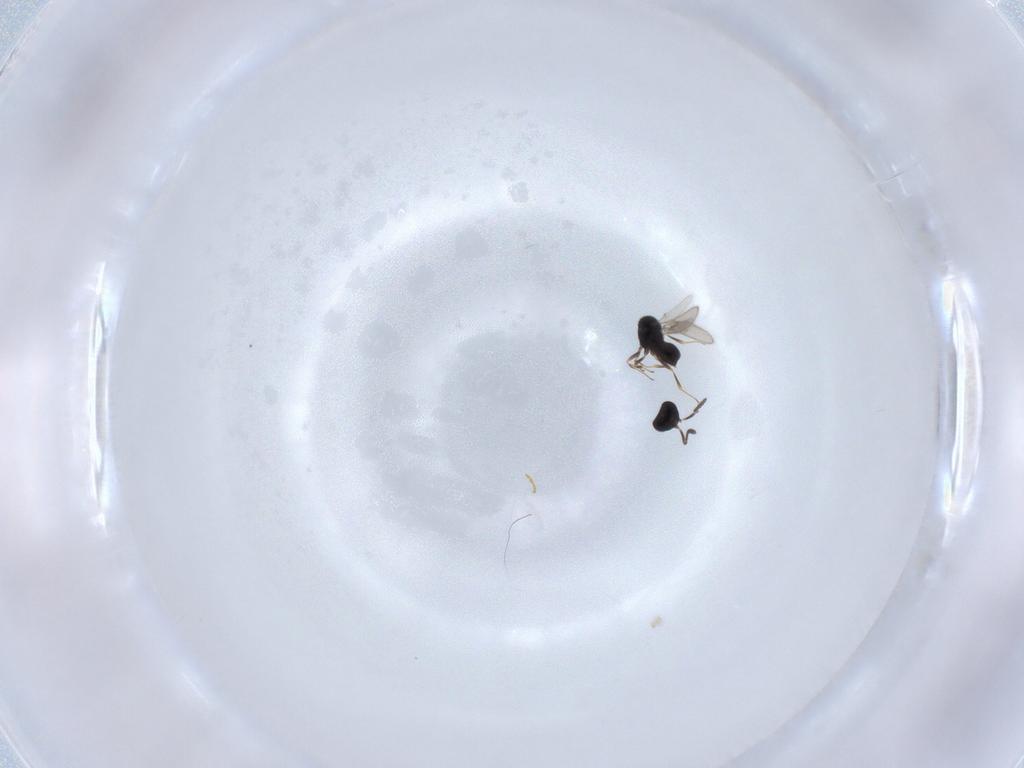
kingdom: Animalia
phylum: Arthropoda
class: Insecta
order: Hymenoptera
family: Scelionidae
